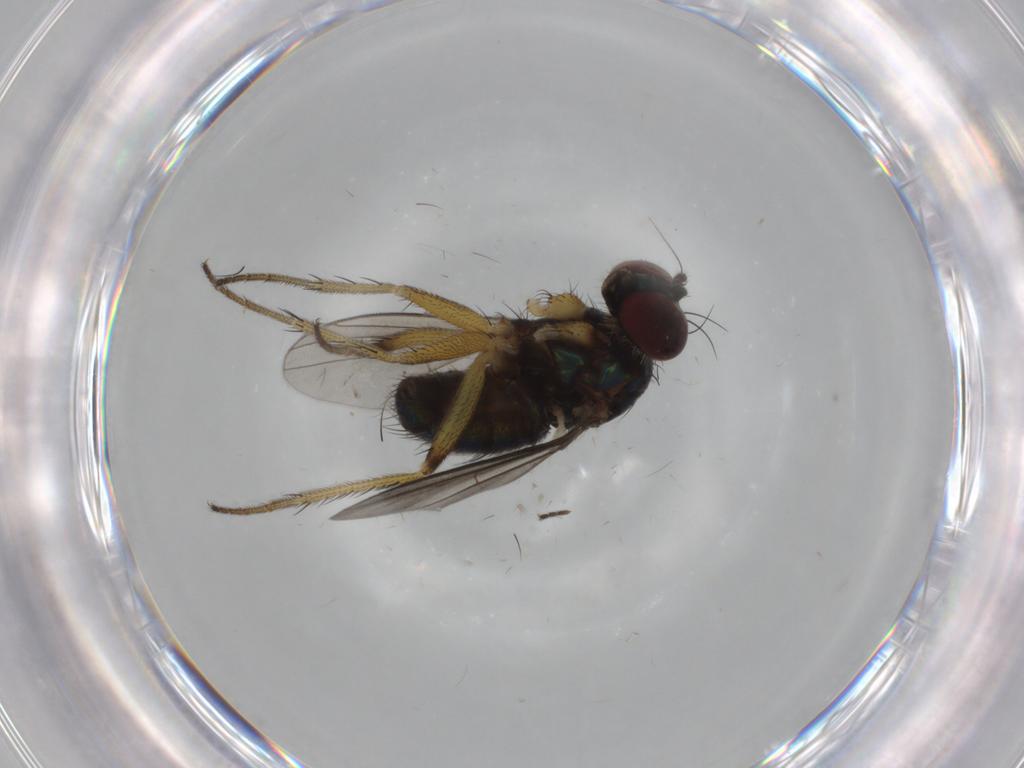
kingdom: Animalia
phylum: Arthropoda
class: Insecta
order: Diptera
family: Dolichopodidae
